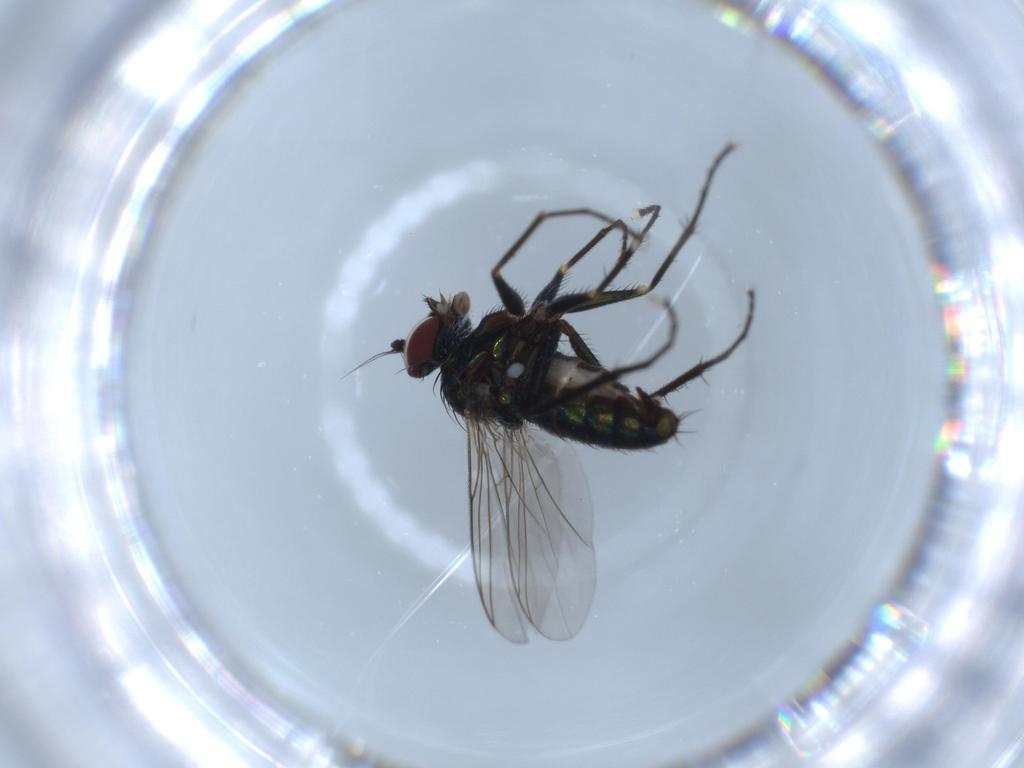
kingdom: Animalia
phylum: Arthropoda
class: Insecta
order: Diptera
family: Dolichopodidae
